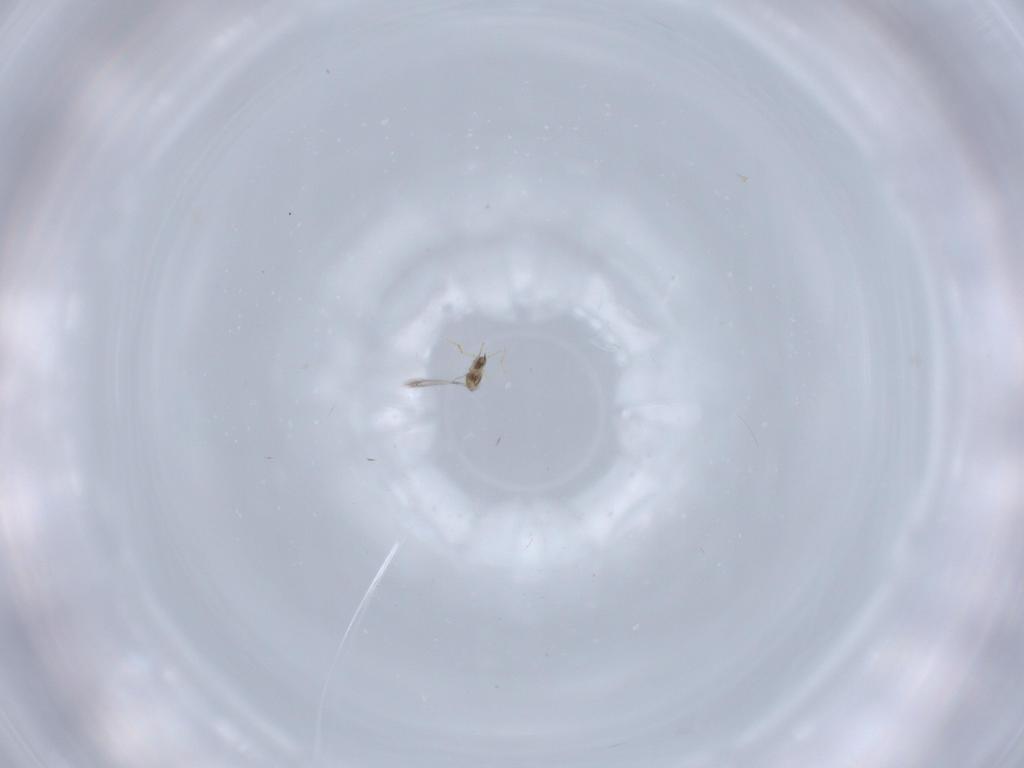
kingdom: Animalia
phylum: Arthropoda
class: Insecta
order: Hymenoptera
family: Mymaridae
